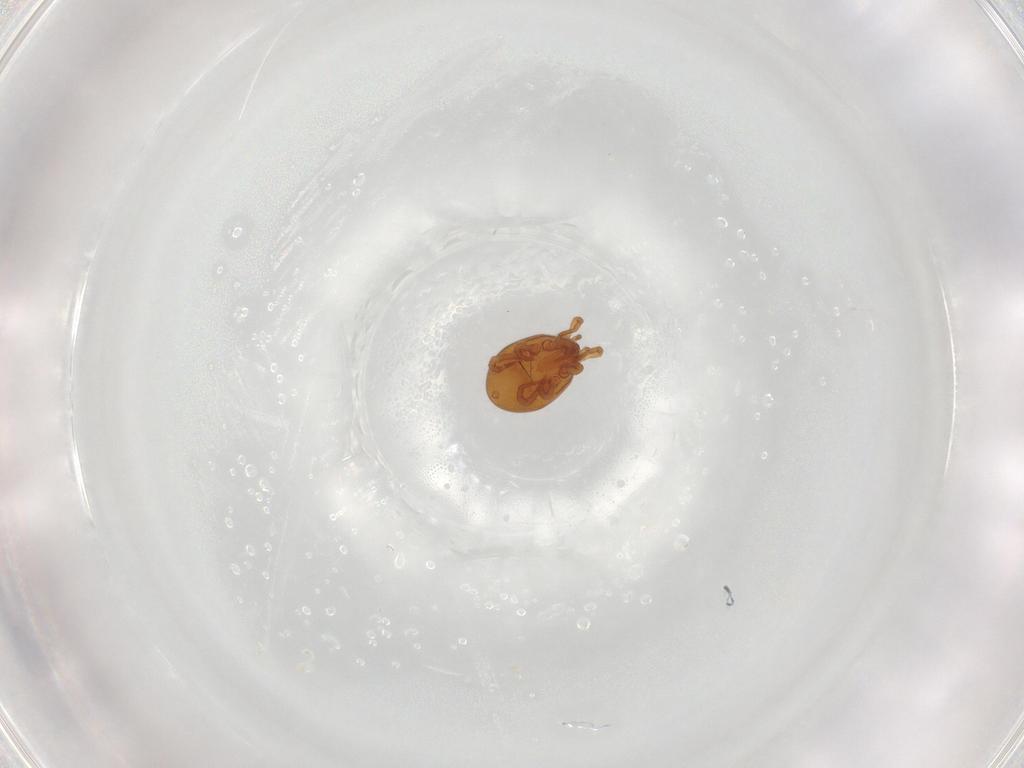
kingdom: Animalia
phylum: Arthropoda
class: Arachnida
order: Mesostigmata
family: Parasitidae
